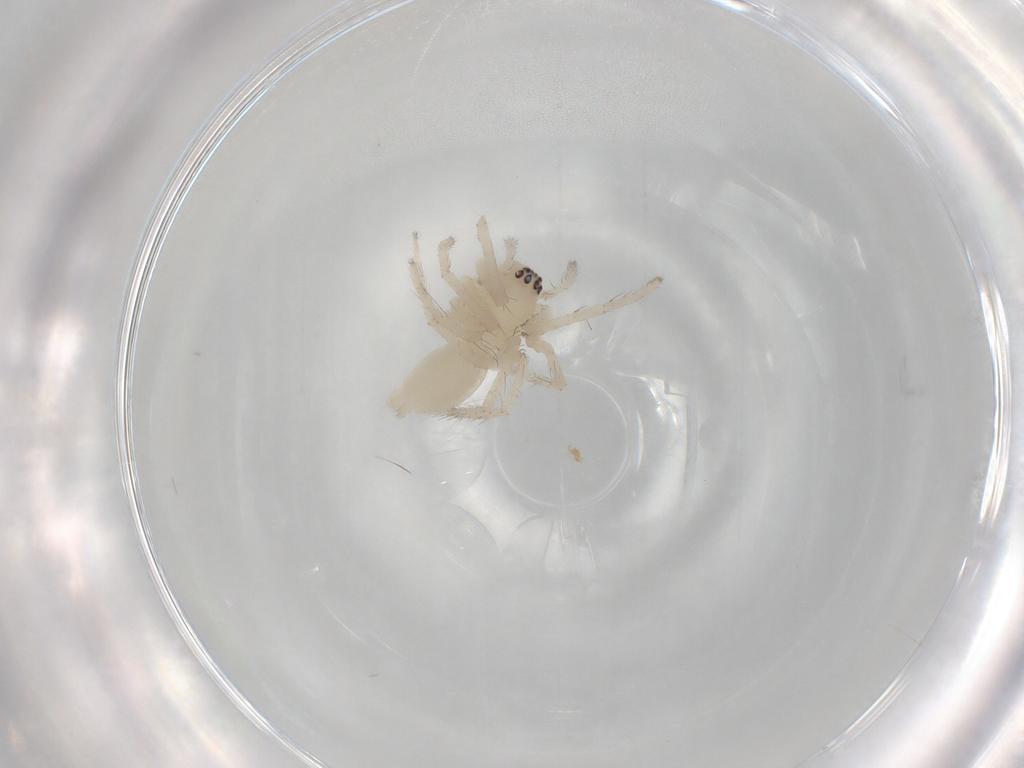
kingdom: Animalia
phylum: Arthropoda
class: Arachnida
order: Araneae
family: Anyphaenidae
